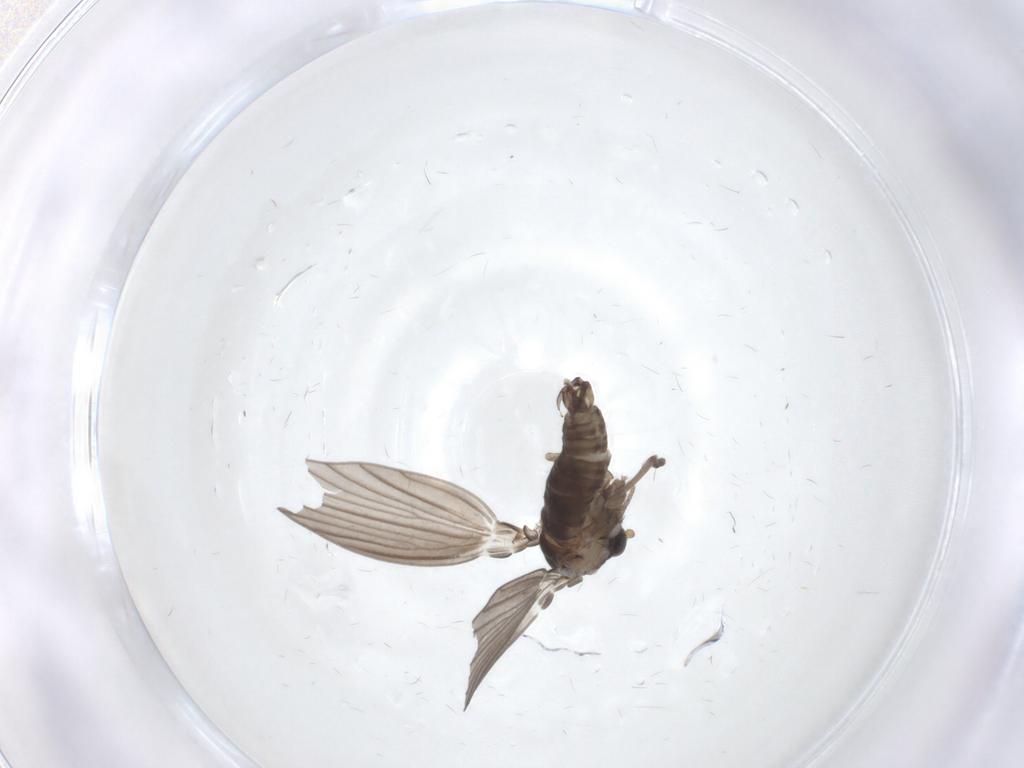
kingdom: Animalia
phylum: Arthropoda
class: Insecta
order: Diptera
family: Psychodidae
